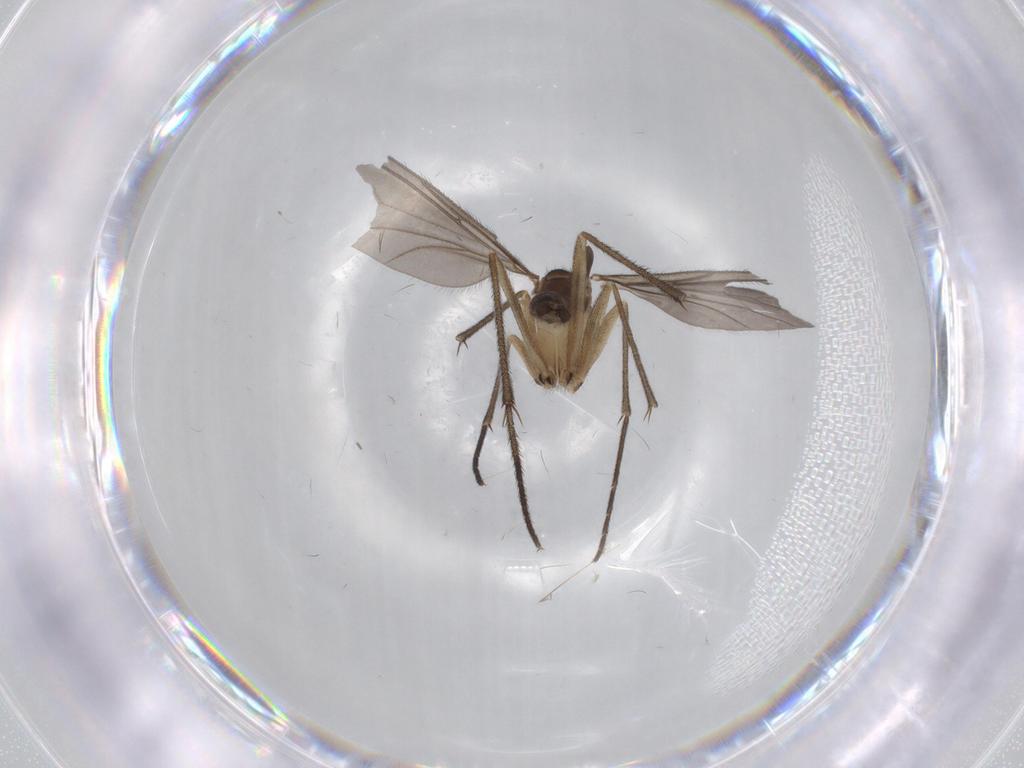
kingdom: Animalia
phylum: Arthropoda
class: Insecta
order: Diptera
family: Sciaridae
